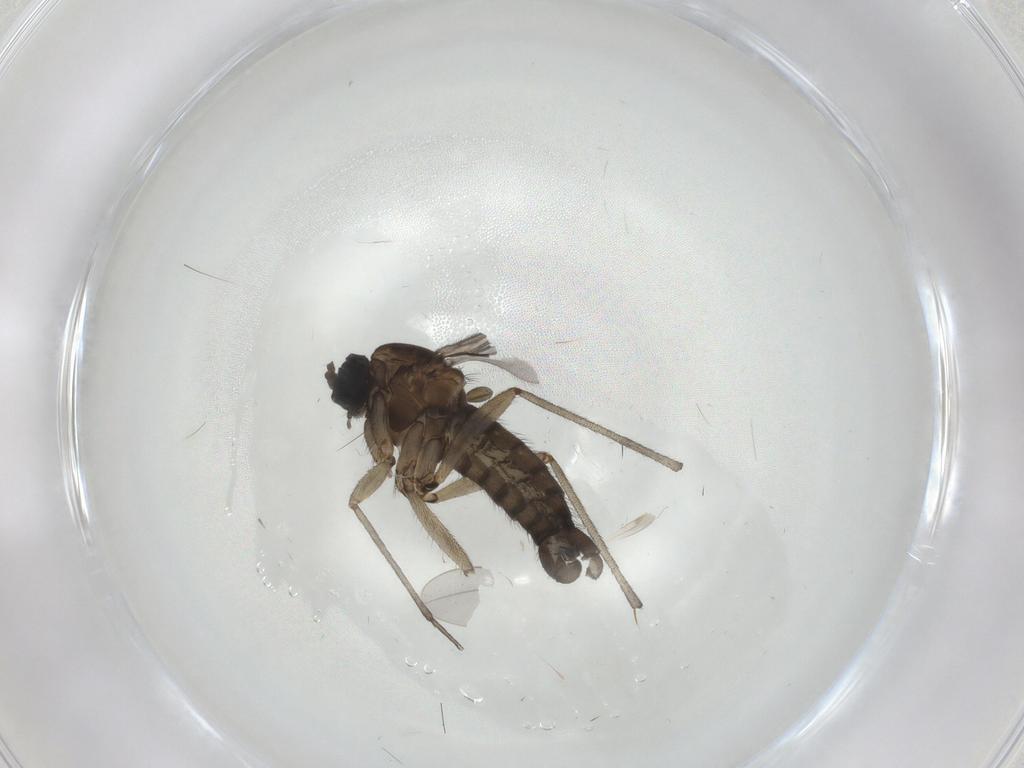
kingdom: Animalia
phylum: Arthropoda
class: Insecta
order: Diptera
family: Sciaridae
